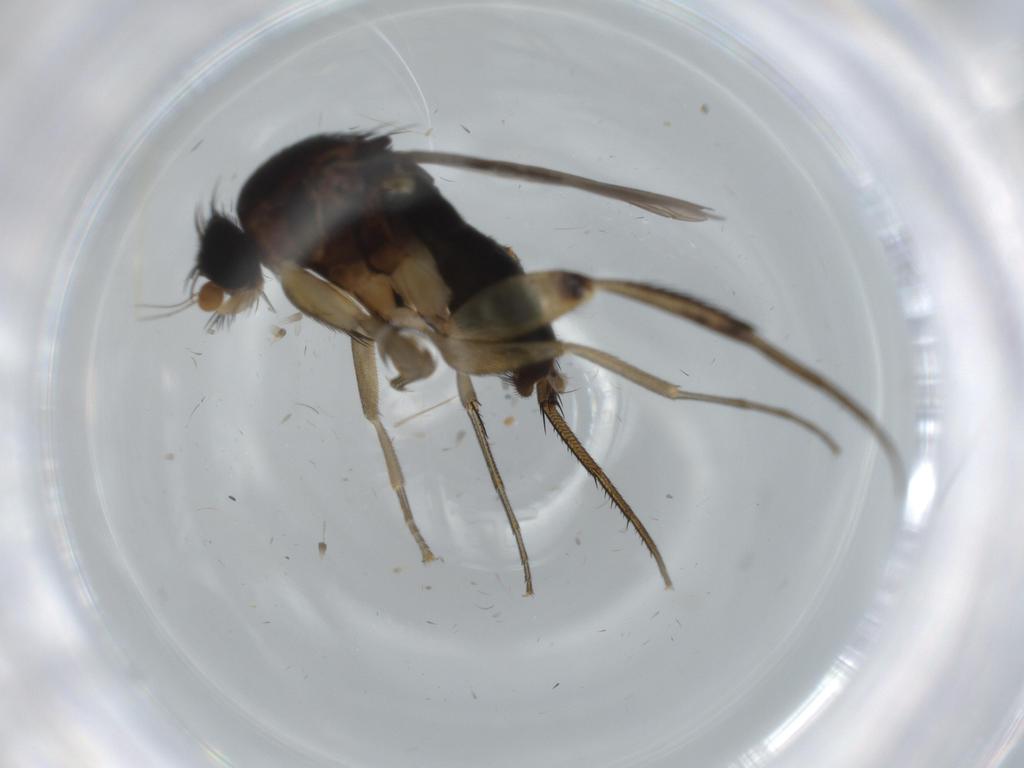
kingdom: Animalia
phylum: Arthropoda
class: Insecta
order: Diptera
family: Phoridae
